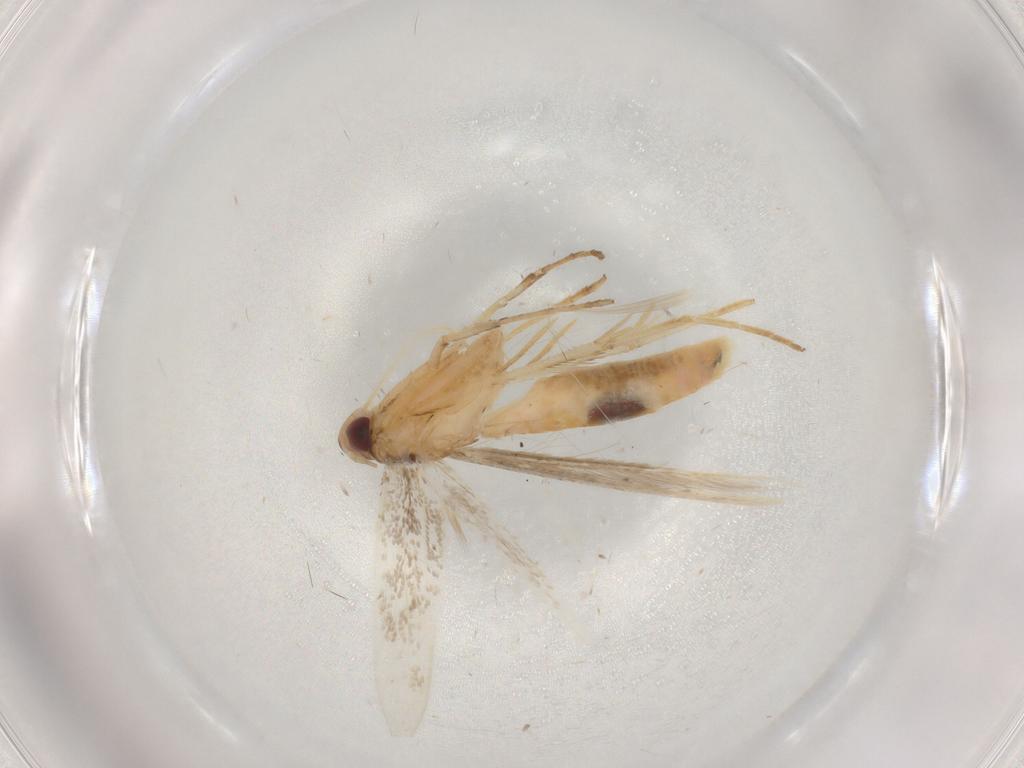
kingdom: Animalia
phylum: Arthropoda
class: Insecta
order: Lepidoptera
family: Cosmopterigidae
